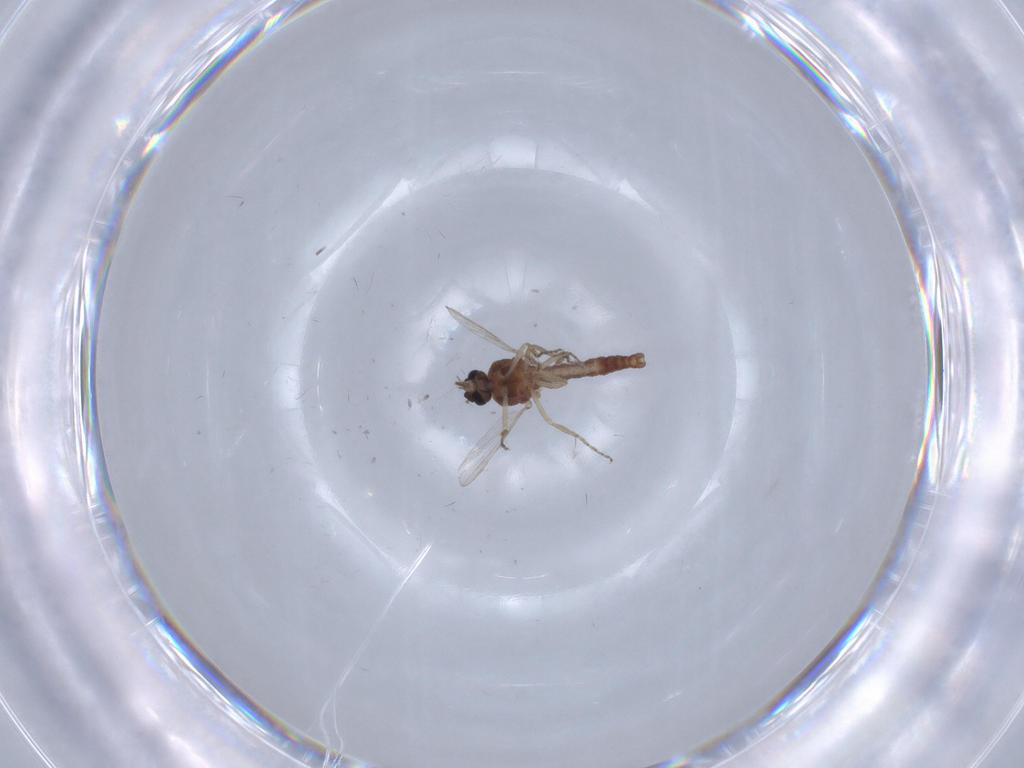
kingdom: Animalia
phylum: Arthropoda
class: Insecta
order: Diptera
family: Ceratopogonidae
